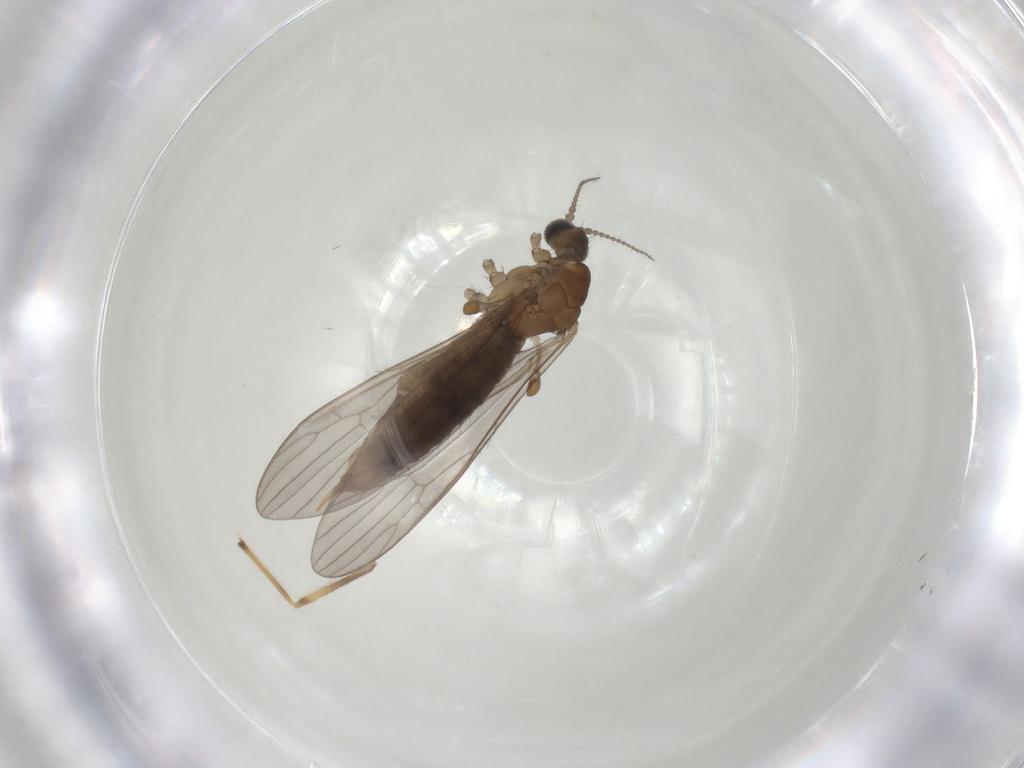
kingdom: Animalia
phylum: Arthropoda
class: Insecta
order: Diptera
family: Limoniidae
